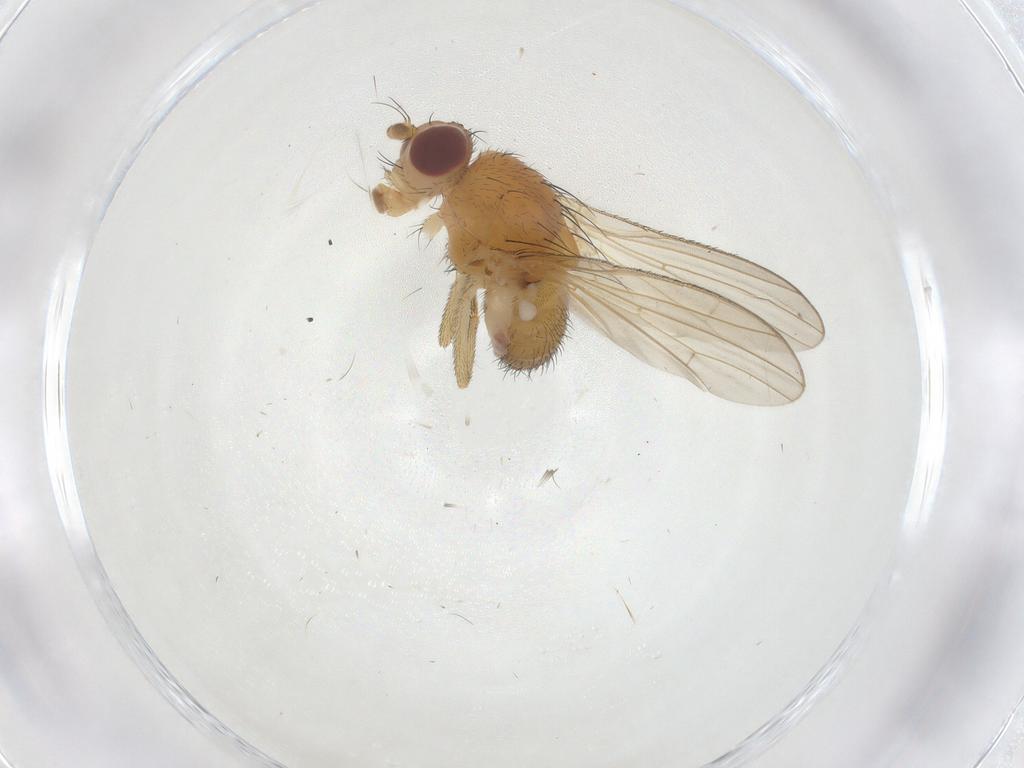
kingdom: Animalia
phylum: Arthropoda
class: Insecta
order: Diptera
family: Heleomyzidae
